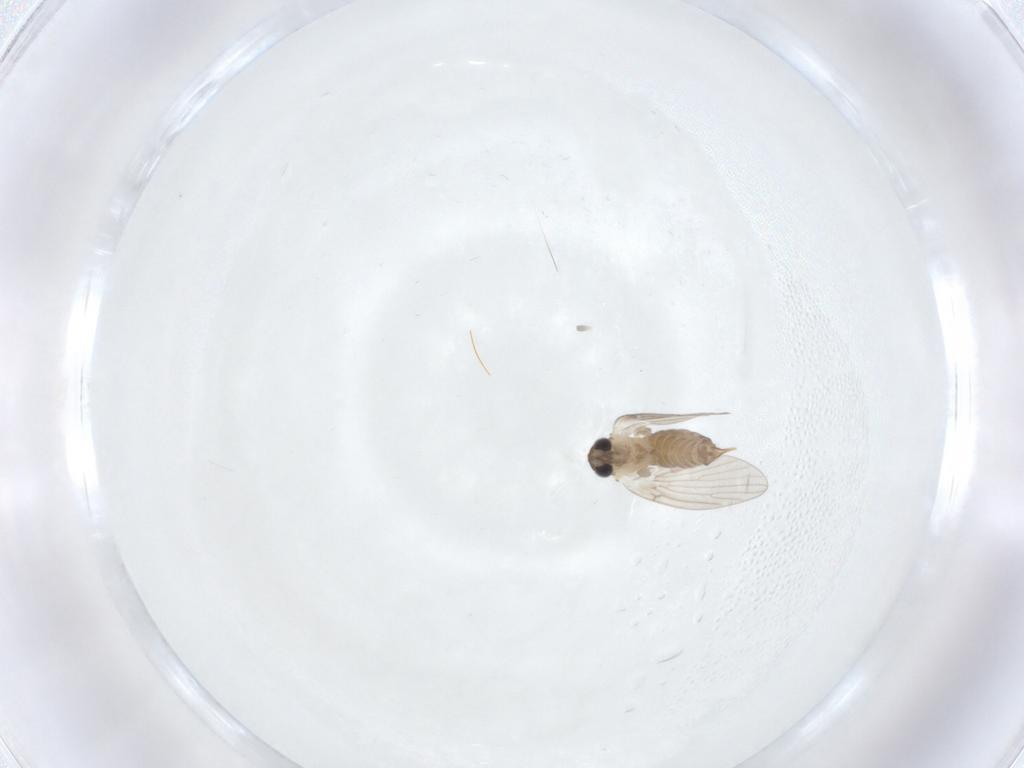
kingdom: Animalia
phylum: Arthropoda
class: Insecta
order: Diptera
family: Psychodidae
